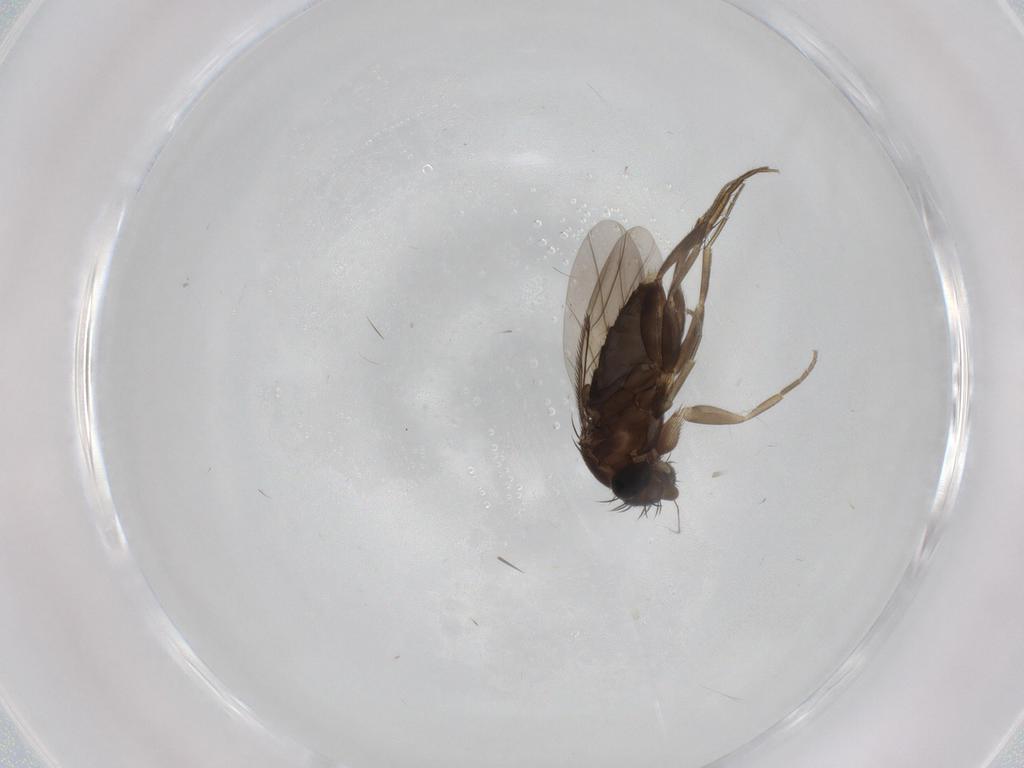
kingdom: Animalia
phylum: Arthropoda
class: Insecta
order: Diptera
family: Phoridae
